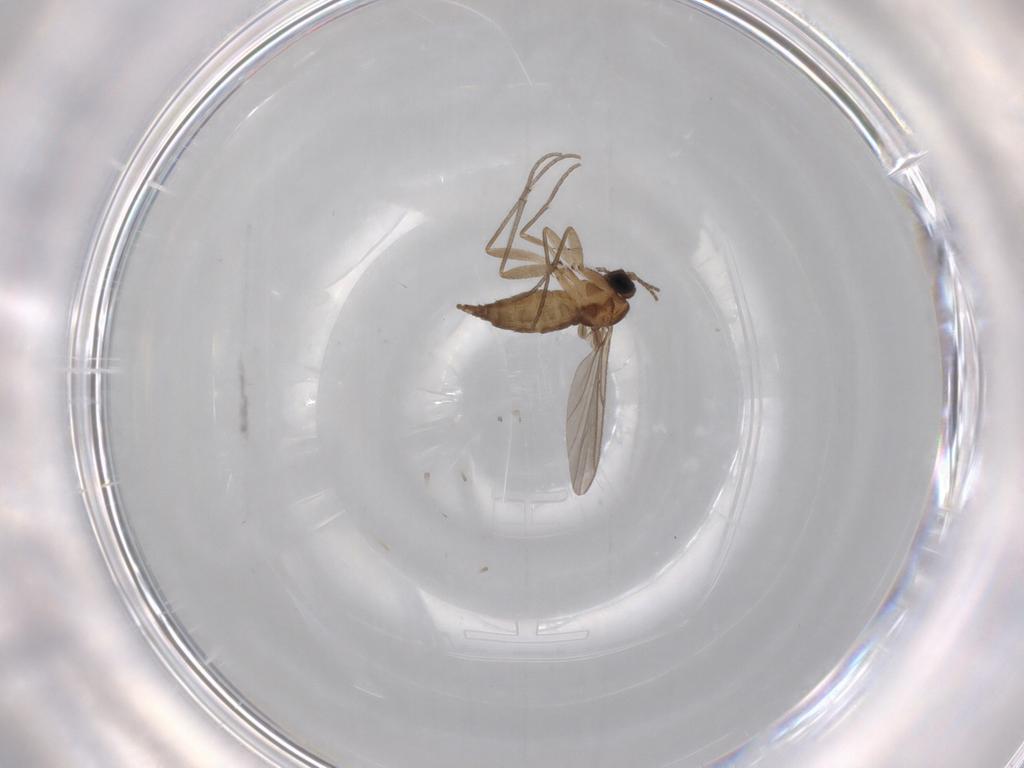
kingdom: Animalia
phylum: Arthropoda
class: Insecta
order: Diptera
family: Sciaridae
